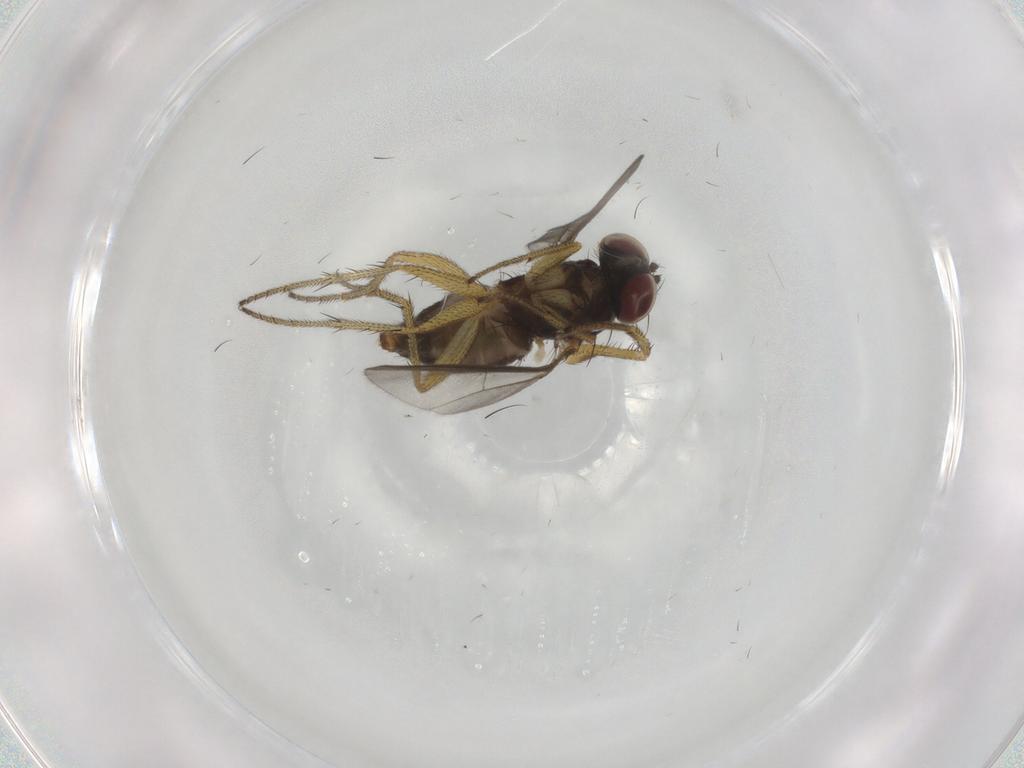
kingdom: Animalia
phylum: Arthropoda
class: Insecta
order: Diptera
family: Dolichopodidae
